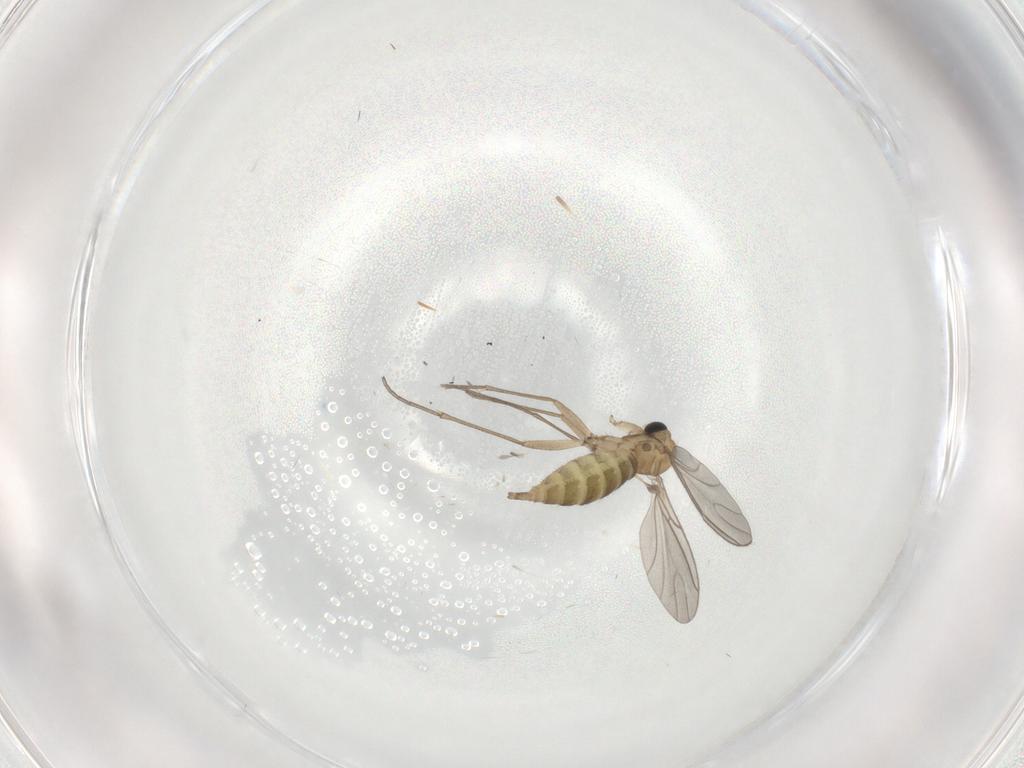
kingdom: Animalia
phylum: Arthropoda
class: Insecta
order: Diptera
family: Sciaridae
